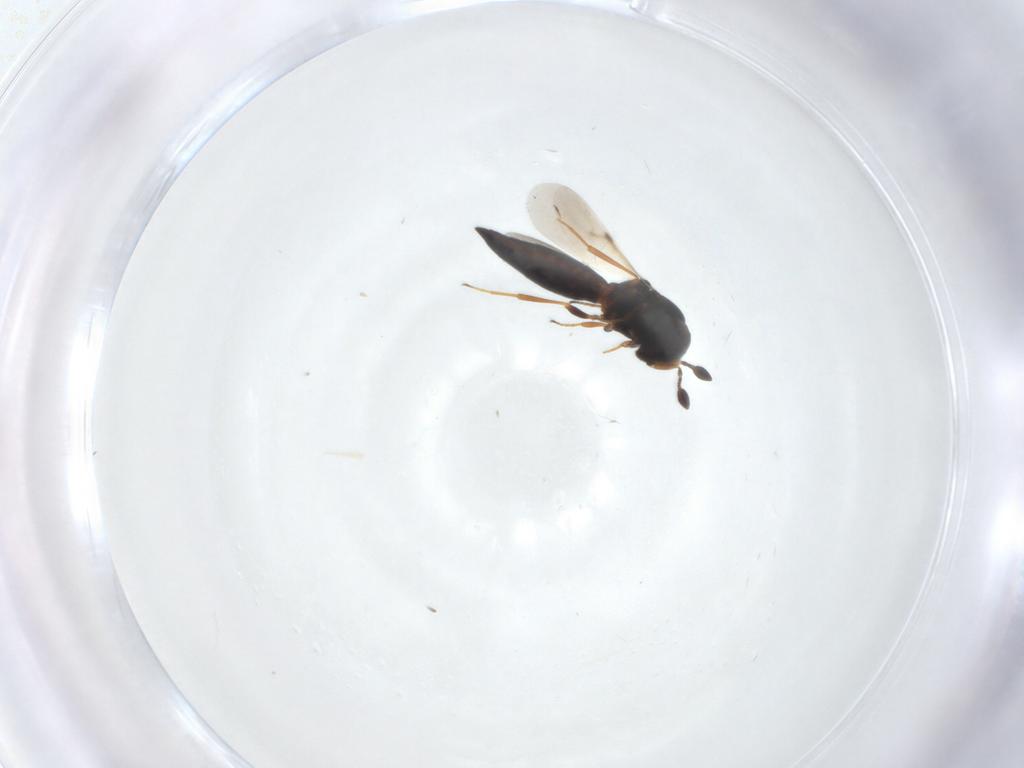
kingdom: Animalia
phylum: Arthropoda
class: Insecta
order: Hymenoptera
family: Scelionidae
